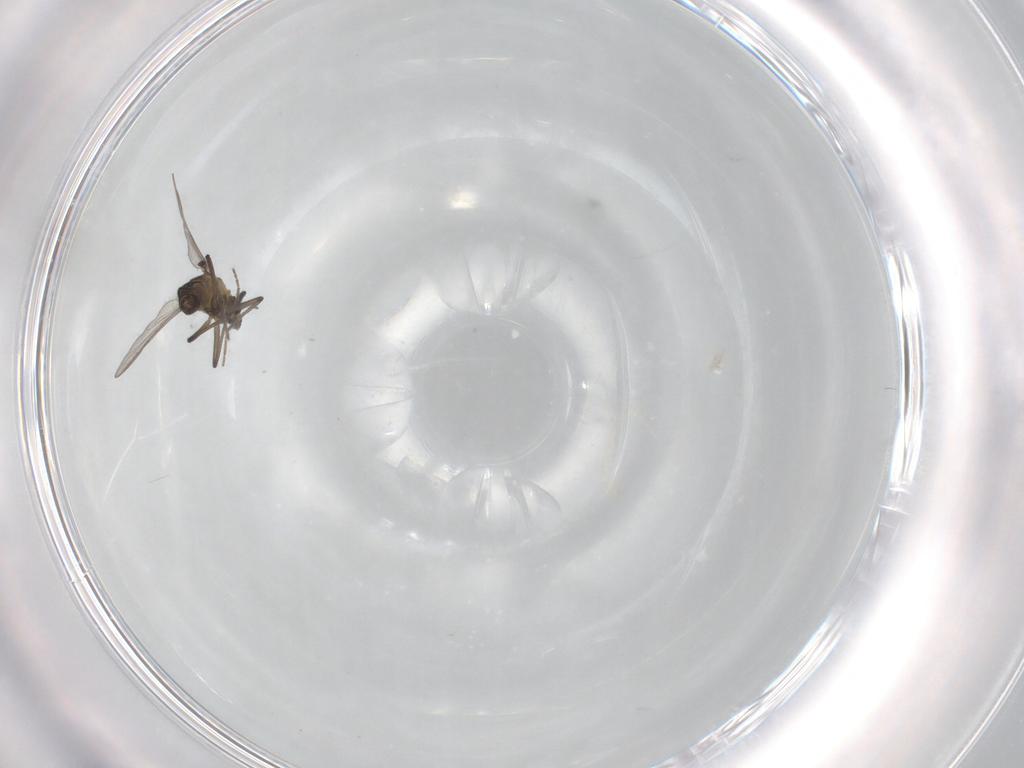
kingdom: Animalia
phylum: Arthropoda
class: Insecta
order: Diptera
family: Chironomidae
